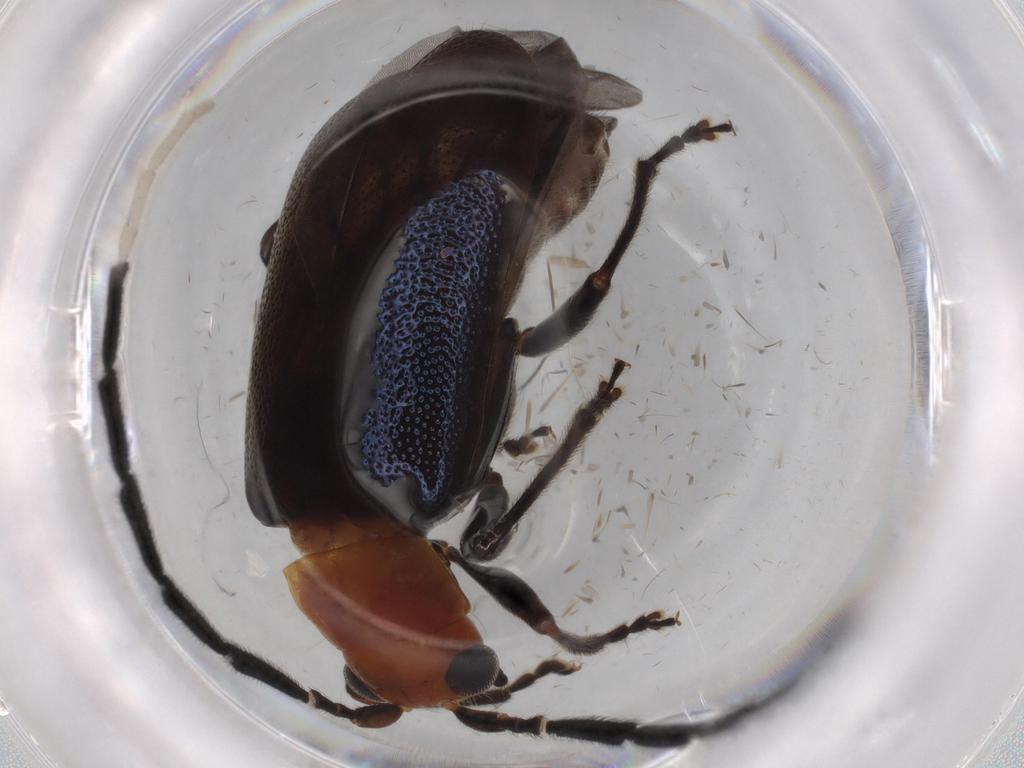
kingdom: Animalia
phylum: Arthropoda
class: Insecta
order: Coleoptera
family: Chrysomelidae
